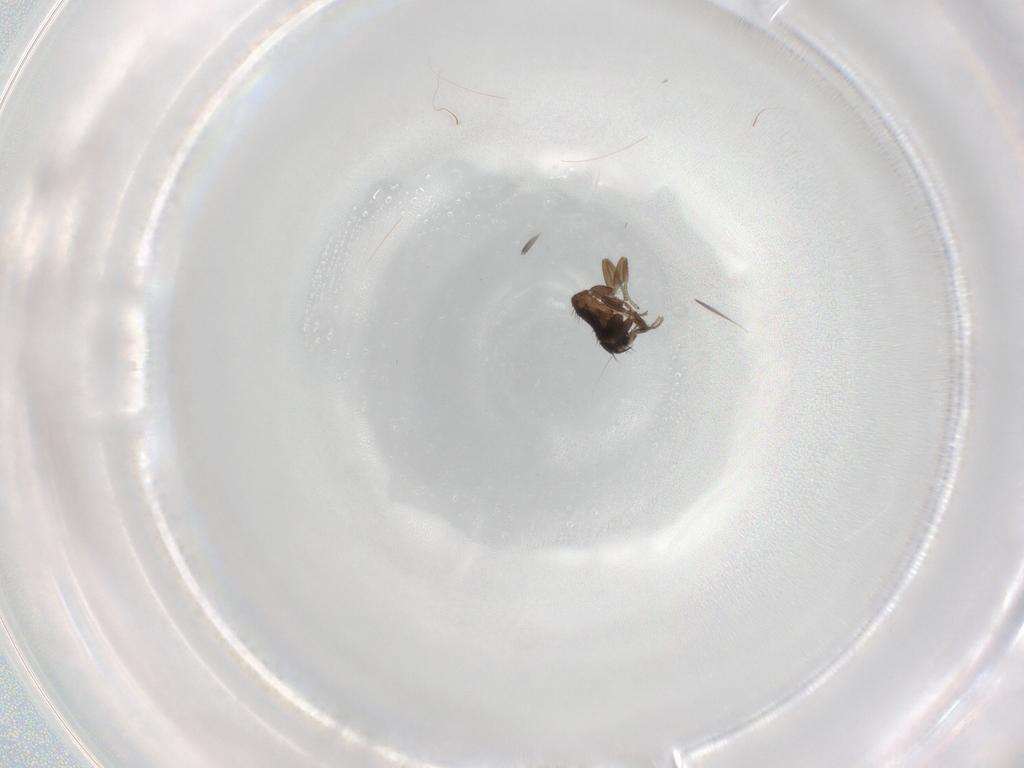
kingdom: Animalia
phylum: Arthropoda
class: Insecta
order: Diptera
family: Phoridae
